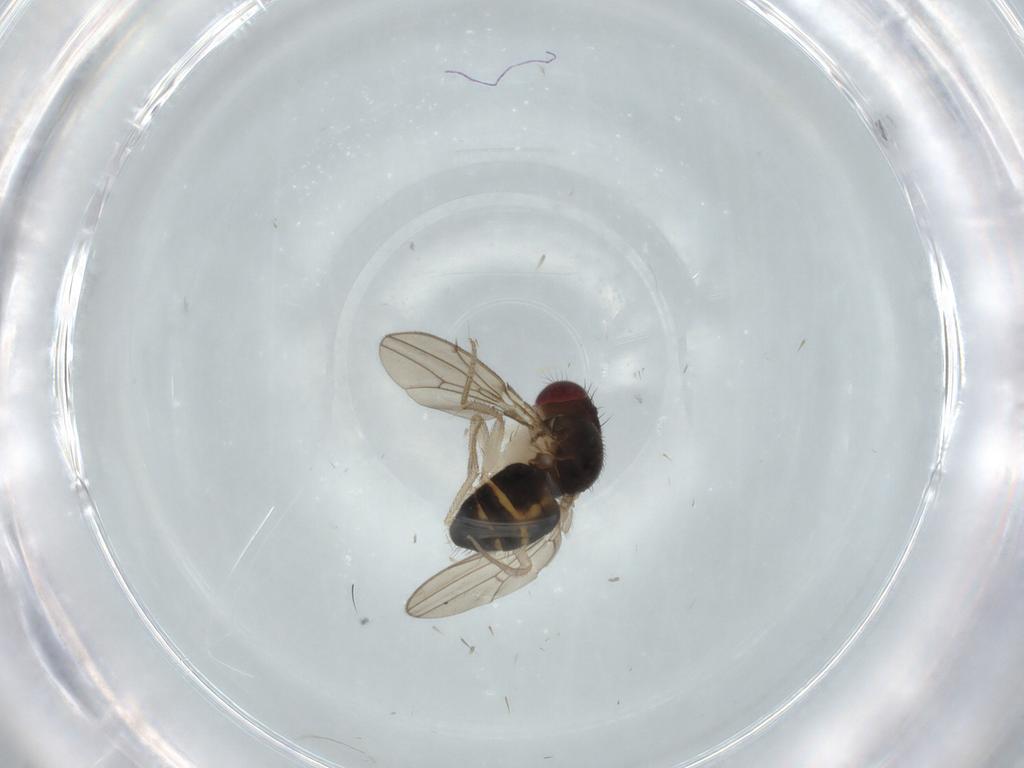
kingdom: Animalia
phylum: Arthropoda
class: Insecta
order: Diptera
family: Drosophilidae
